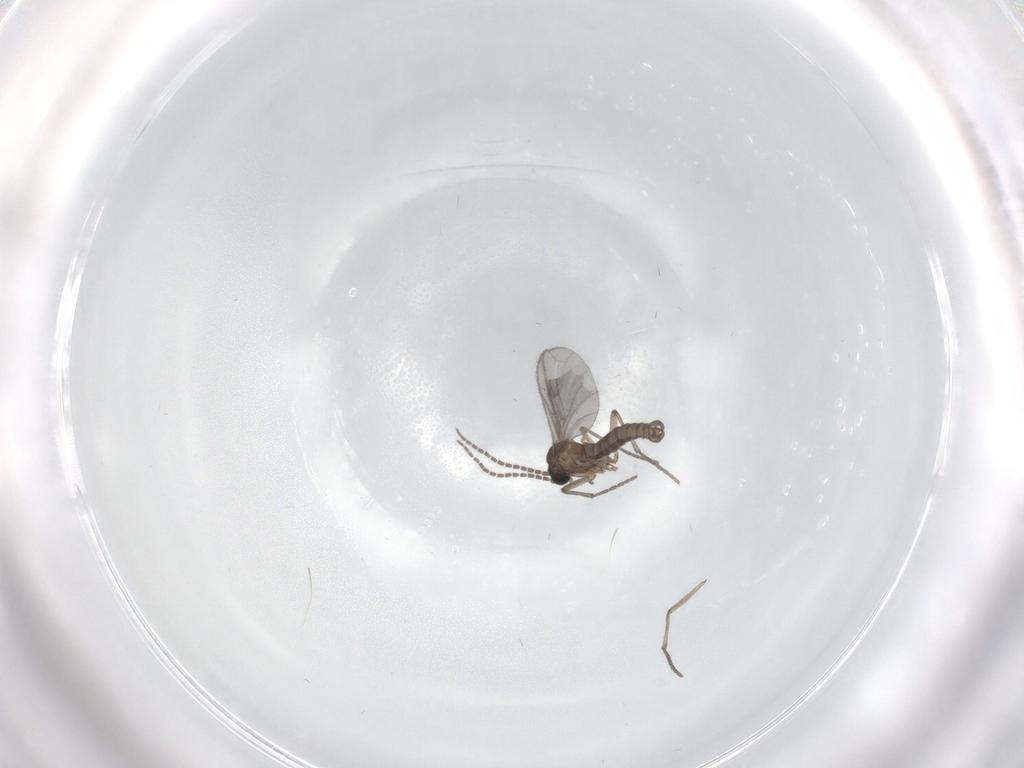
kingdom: Animalia
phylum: Arthropoda
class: Insecta
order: Diptera
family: Sciaridae
